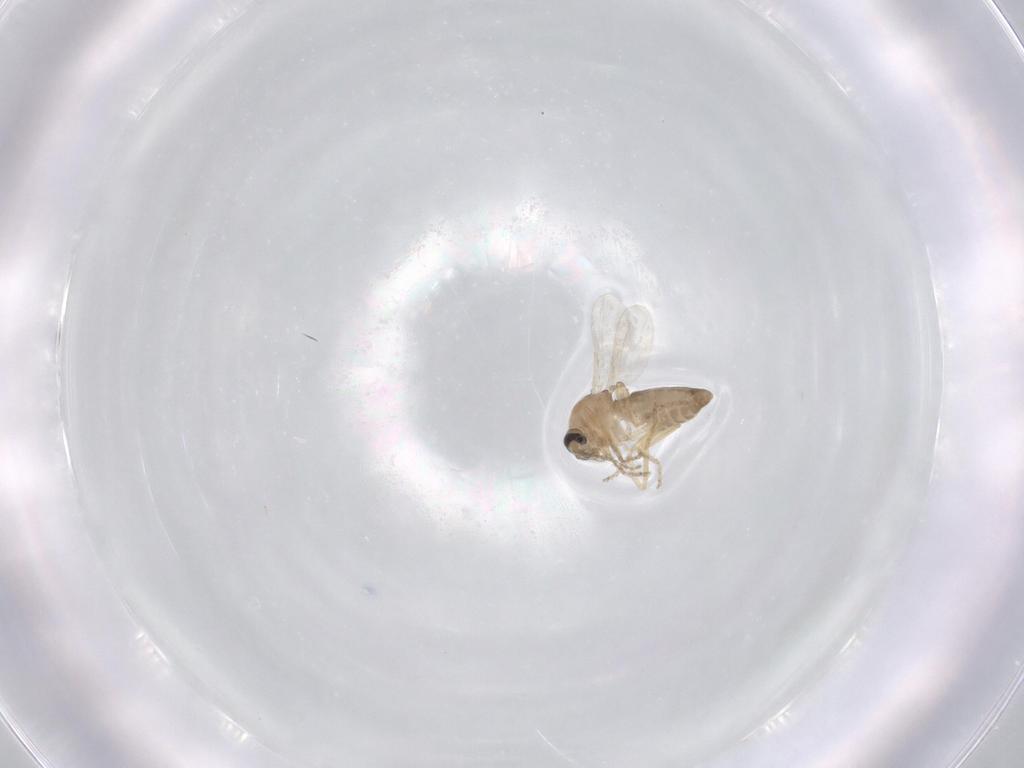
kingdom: Animalia
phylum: Arthropoda
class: Insecta
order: Diptera
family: Ceratopogonidae
